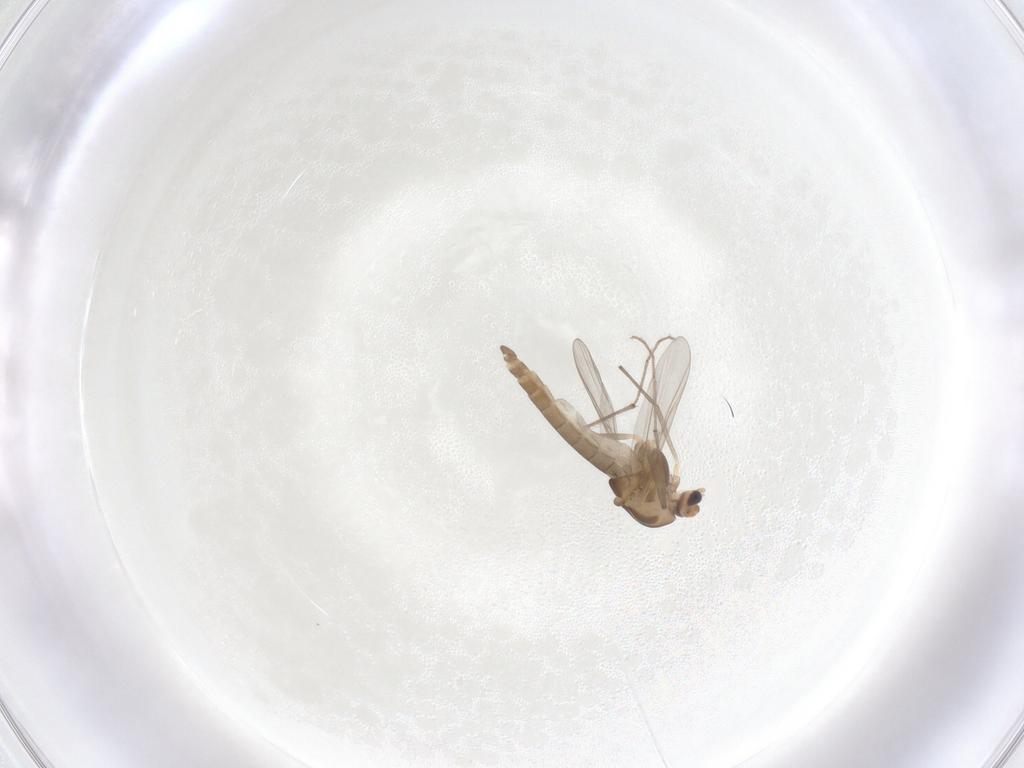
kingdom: Animalia
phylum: Arthropoda
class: Insecta
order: Diptera
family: Chironomidae
